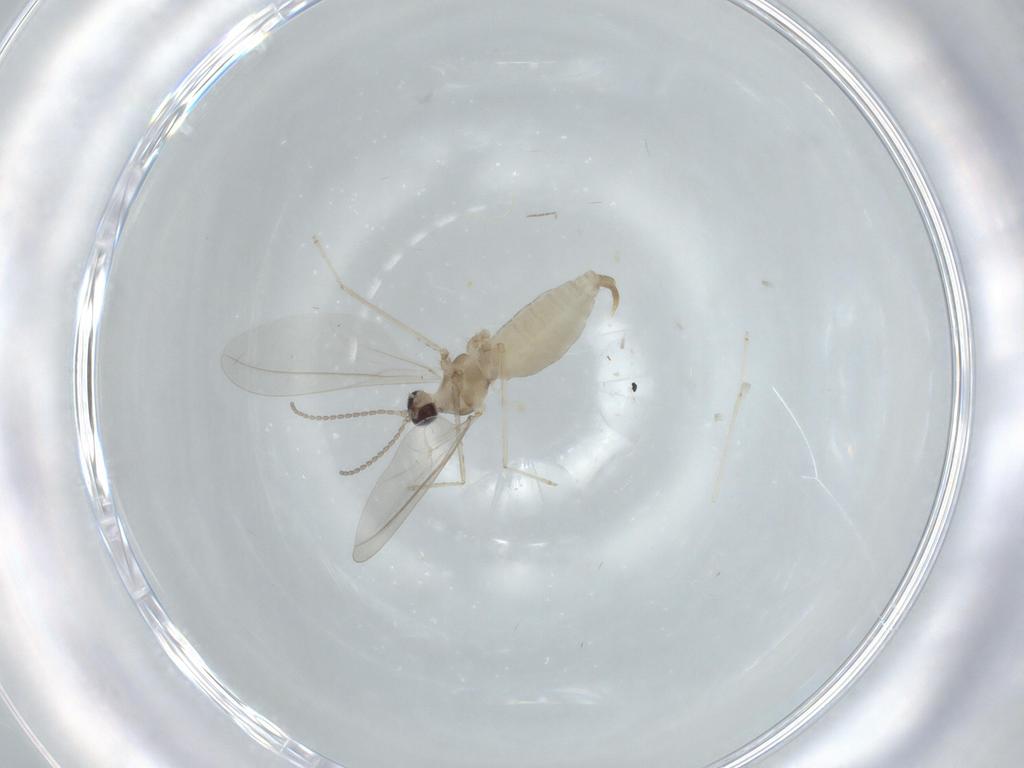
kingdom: Animalia
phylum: Arthropoda
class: Insecta
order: Diptera
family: Cecidomyiidae
